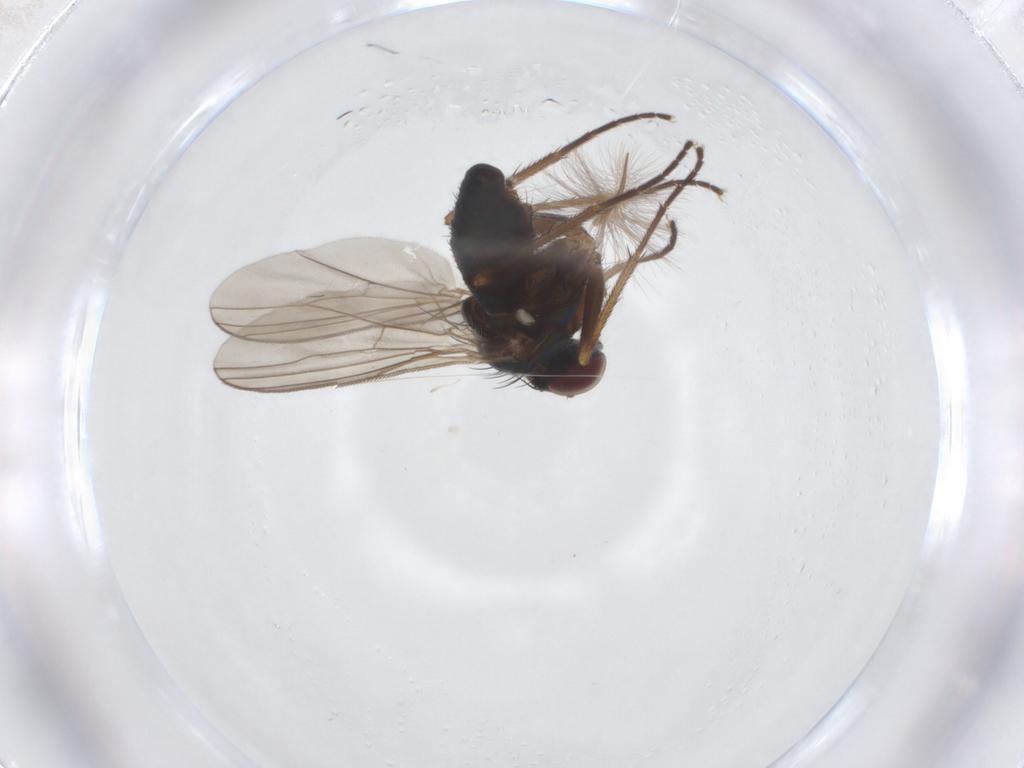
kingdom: Animalia
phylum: Arthropoda
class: Insecta
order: Diptera
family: Dolichopodidae
